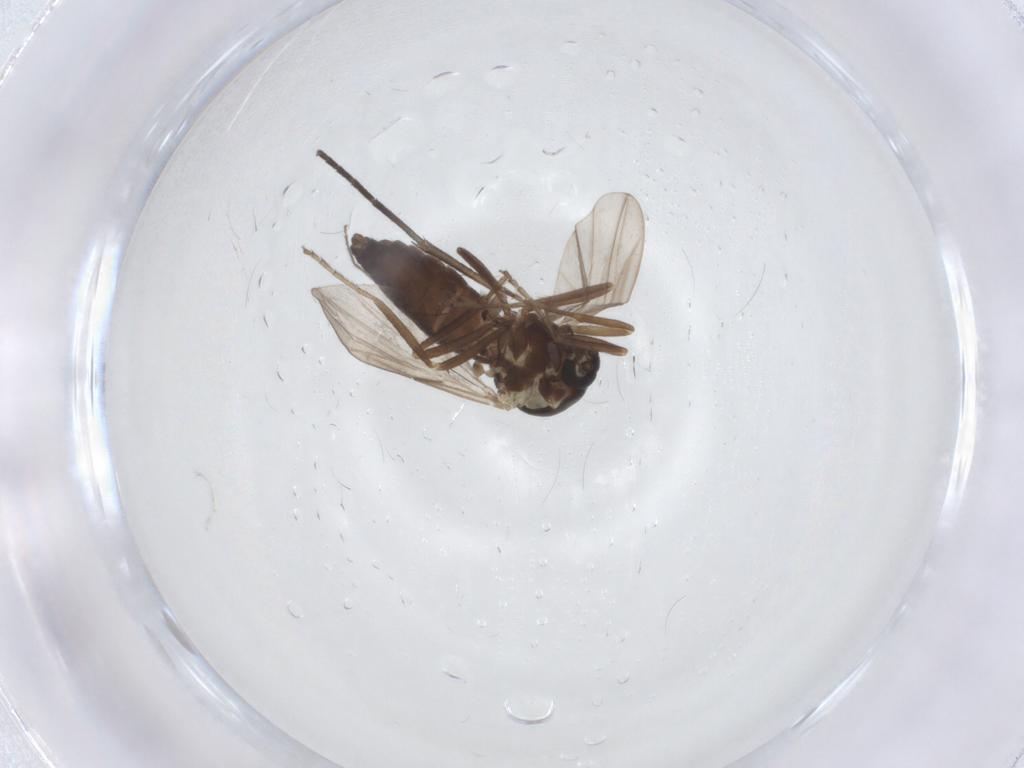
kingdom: Animalia
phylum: Arthropoda
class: Insecta
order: Diptera
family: Ceratopogonidae
